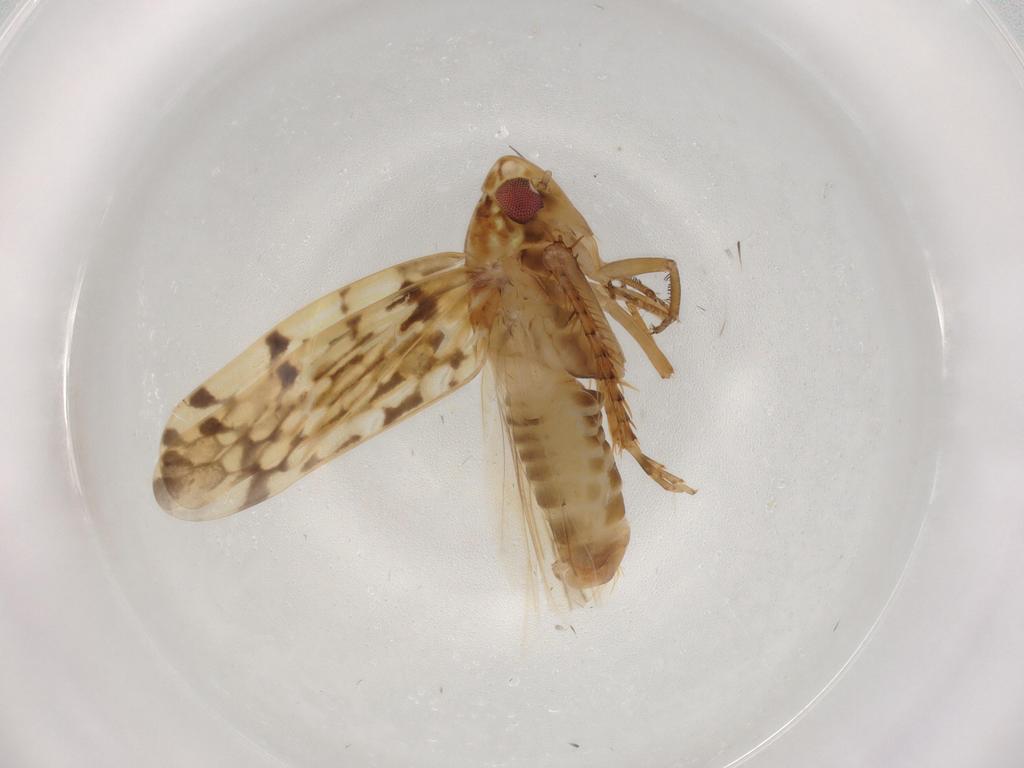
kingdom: Animalia
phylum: Arthropoda
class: Insecta
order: Hemiptera
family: Cicadellidae
